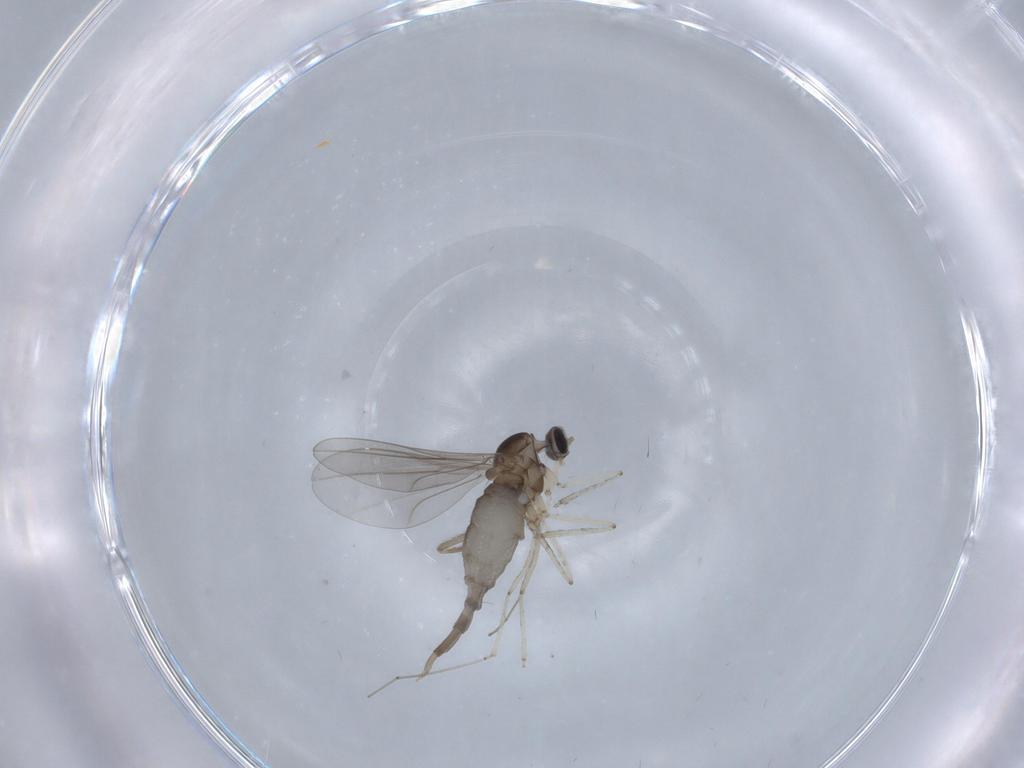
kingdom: Animalia
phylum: Arthropoda
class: Insecta
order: Diptera
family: Cecidomyiidae
